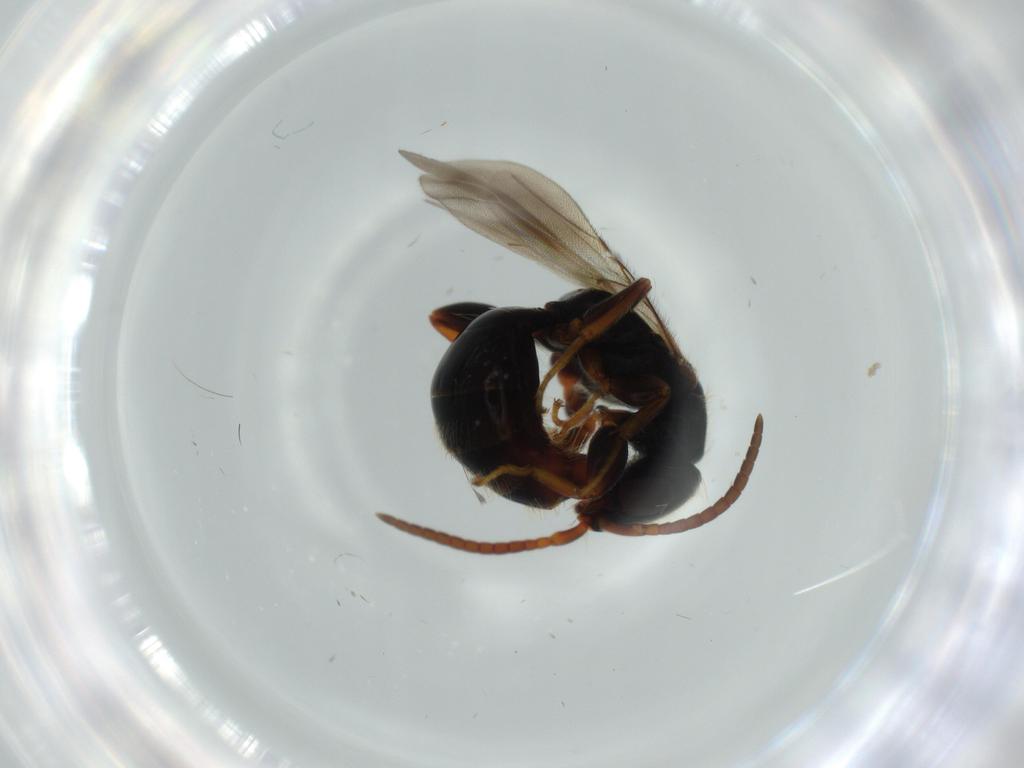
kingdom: Animalia
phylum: Arthropoda
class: Insecta
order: Hymenoptera
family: Bethylidae
